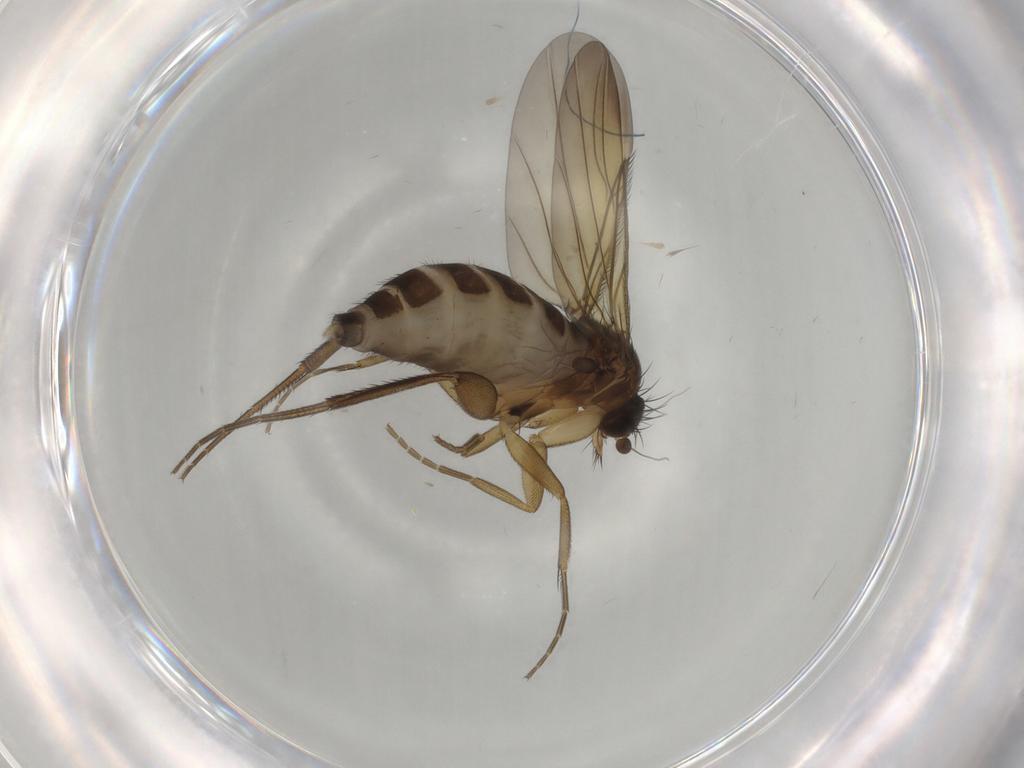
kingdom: Animalia
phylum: Arthropoda
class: Insecta
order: Diptera
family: Phoridae
